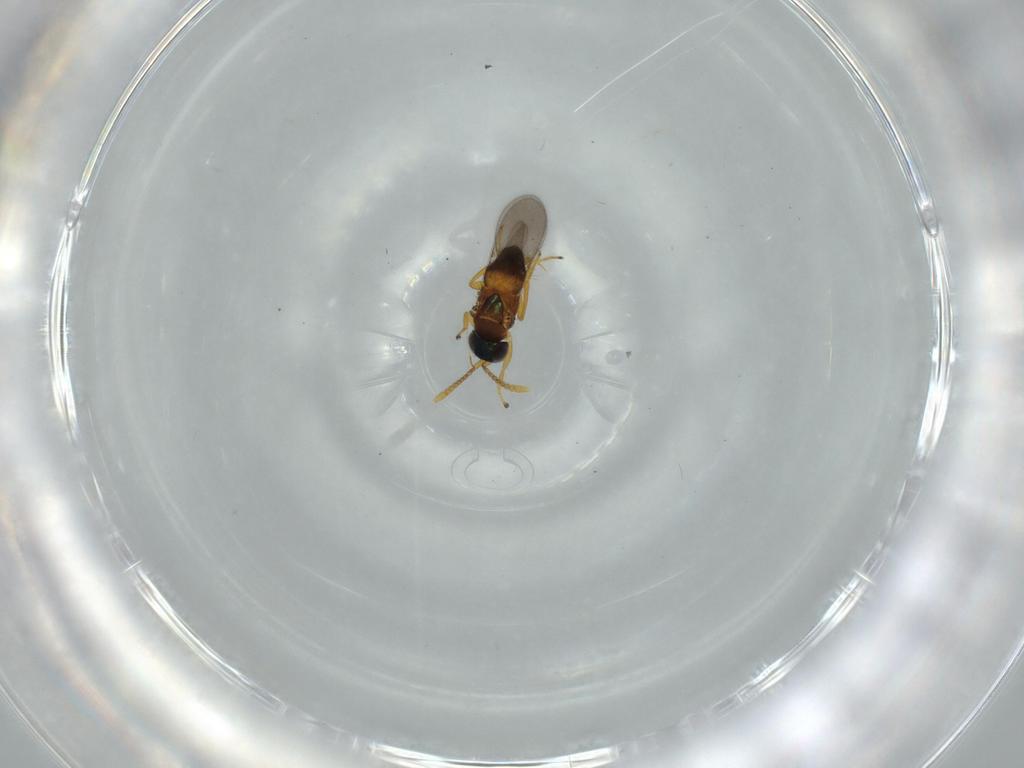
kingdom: Animalia
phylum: Arthropoda
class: Insecta
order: Hymenoptera
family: Encyrtidae
